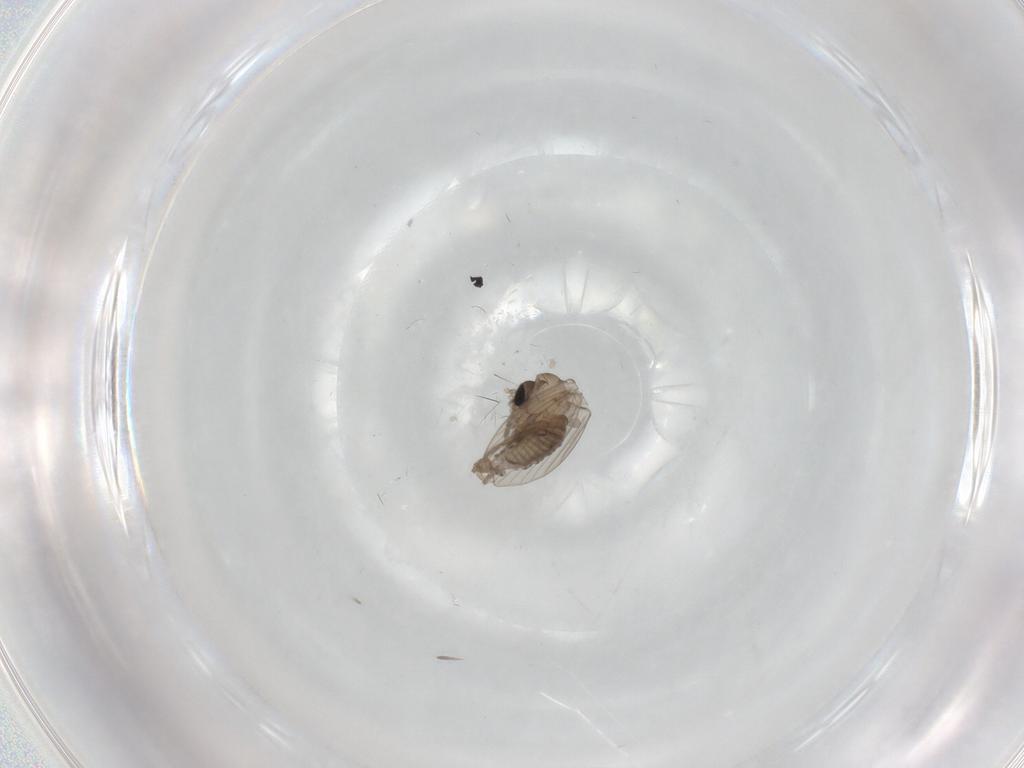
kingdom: Animalia
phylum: Arthropoda
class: Insecta
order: Diptera
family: Psychodidae
